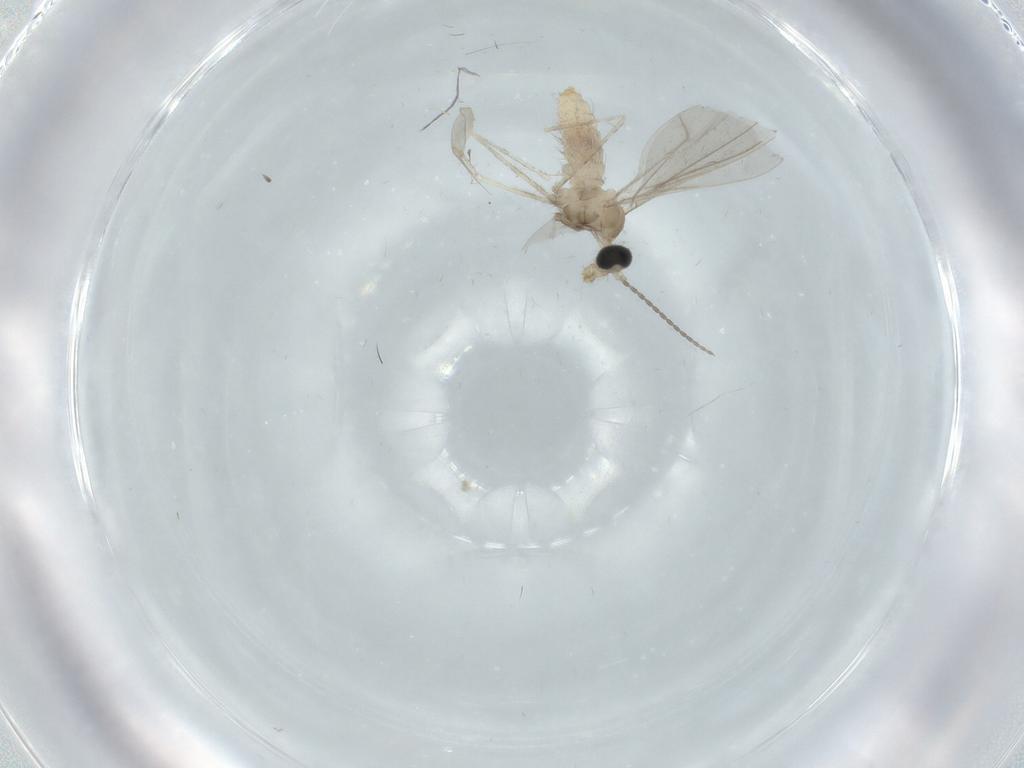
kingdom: Animalia
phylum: Arthropoda
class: Insecta
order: Diptera
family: Cecidomyiidae
